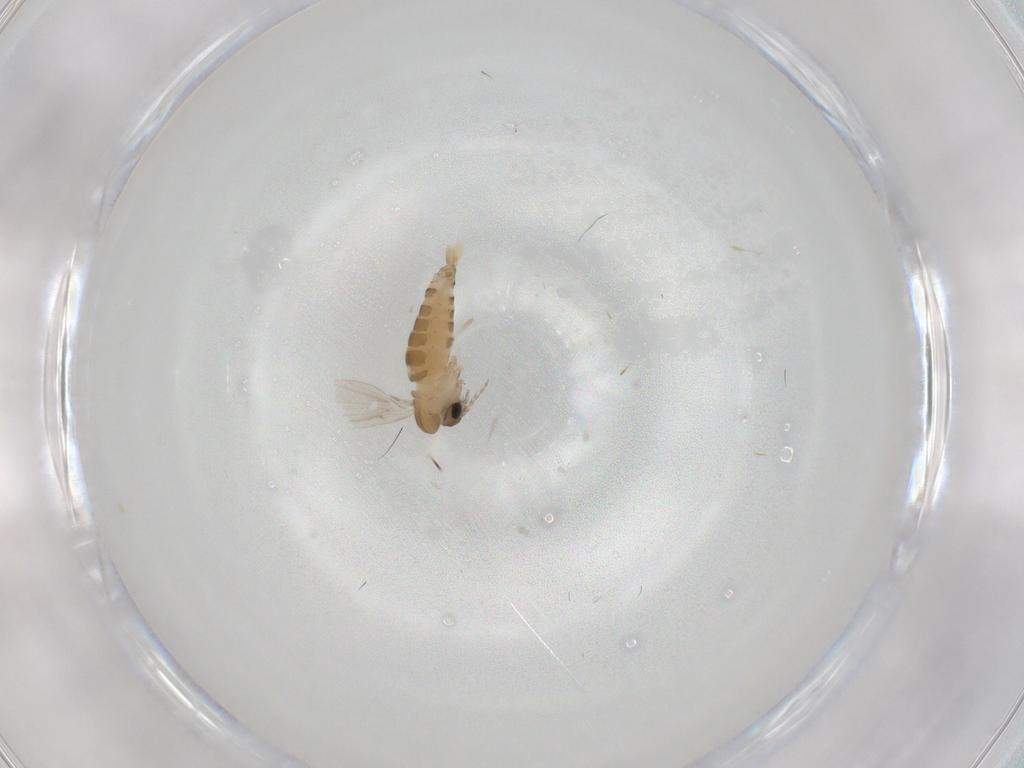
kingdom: Animalia
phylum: Arthropoda
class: Insecta
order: Diptera
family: Psychodidae
